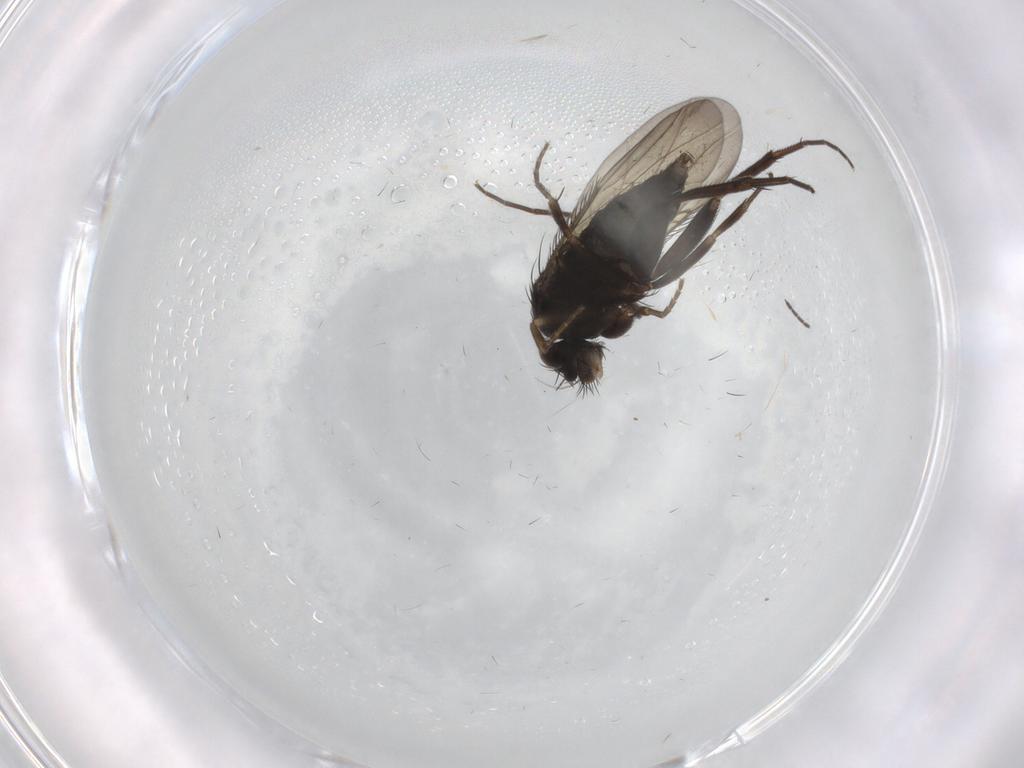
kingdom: Animalia
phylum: Arthropoda
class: Insecta
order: Diptera
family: Phoridae
